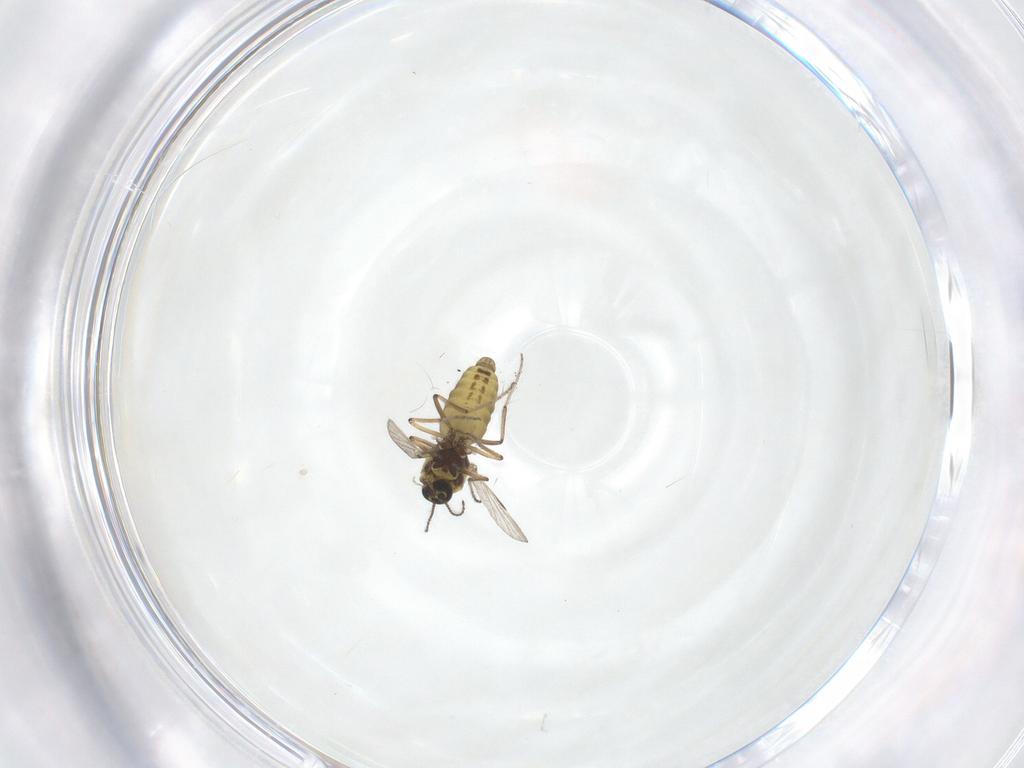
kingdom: Animalia
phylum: Arthropoda
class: Insecta
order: Diptera
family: Ceratopogonidae
